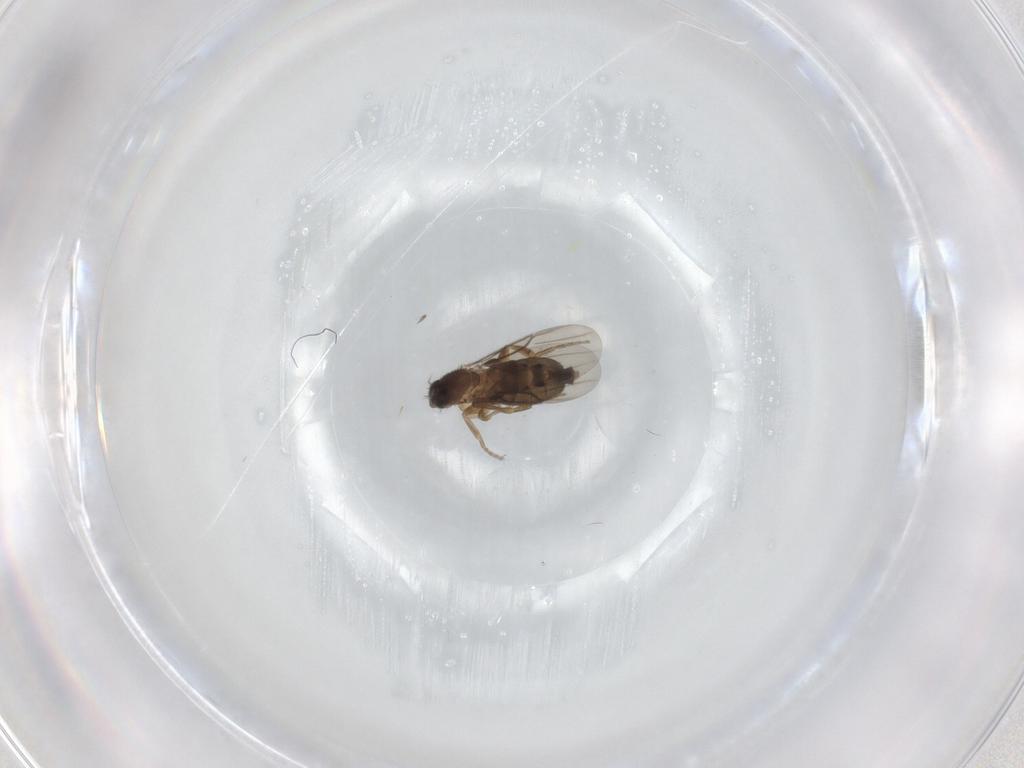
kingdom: Animalia
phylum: Arthropoda
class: Insecta
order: Diptera
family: Phoridae
